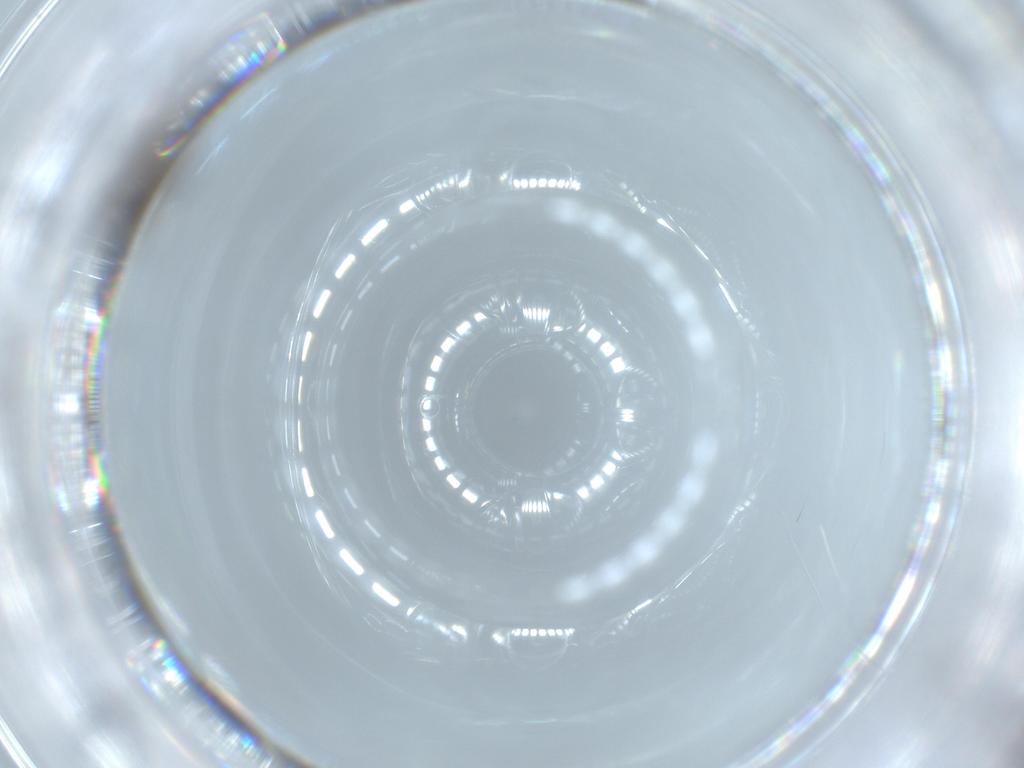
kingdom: Animalia
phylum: Arthropoda
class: Insecta
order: Diptera
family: Cecidomyiidae
